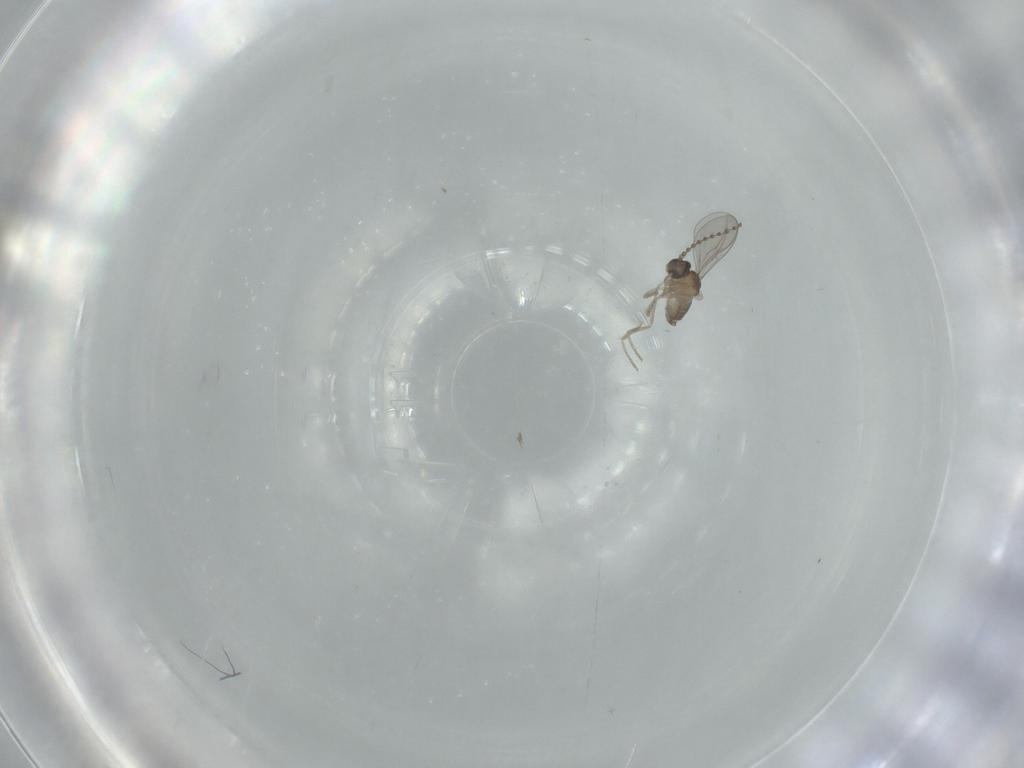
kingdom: Animalia
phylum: Arthropoda
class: Insecta
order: Diptera
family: Cecidomyiidae
